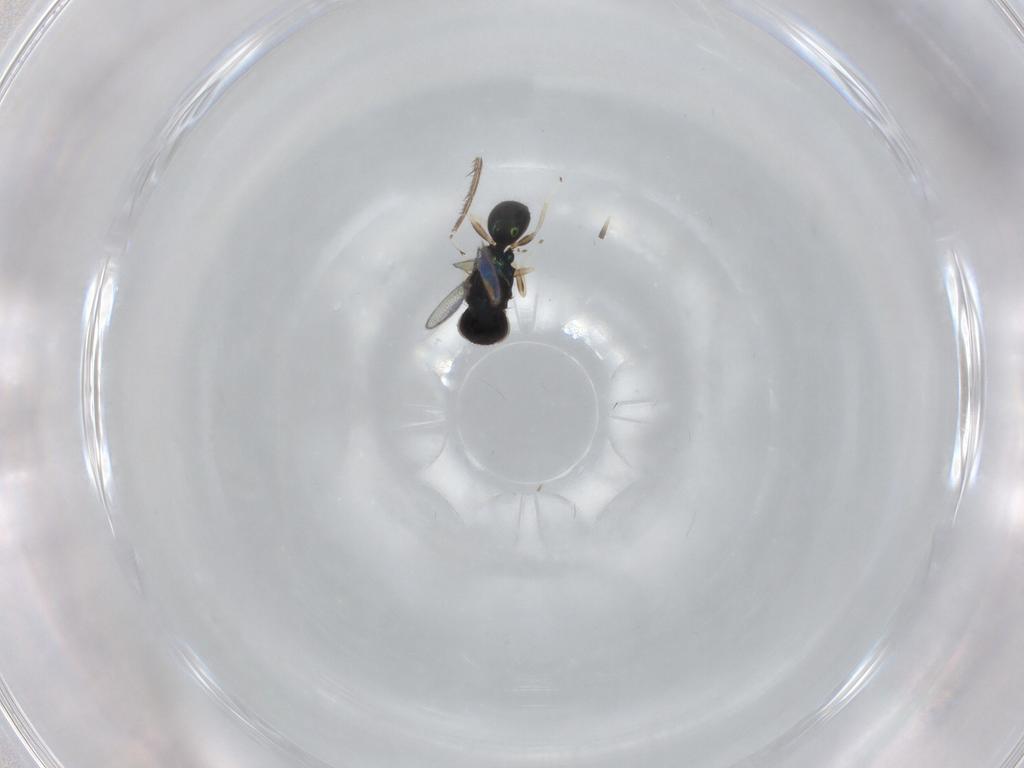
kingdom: Animalia
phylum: Arthropoda
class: Insecta
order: Hymenoptera
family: Eulophidae
